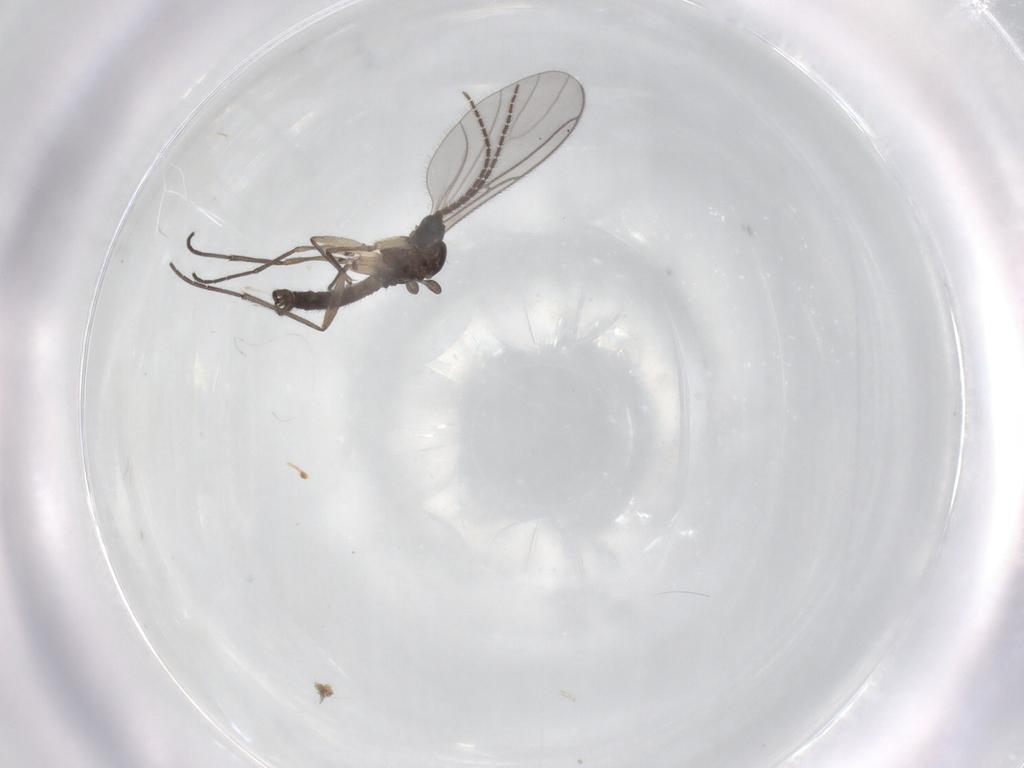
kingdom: Animalia
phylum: Arthropoda
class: Insecta
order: Diptera
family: Sciaridae
